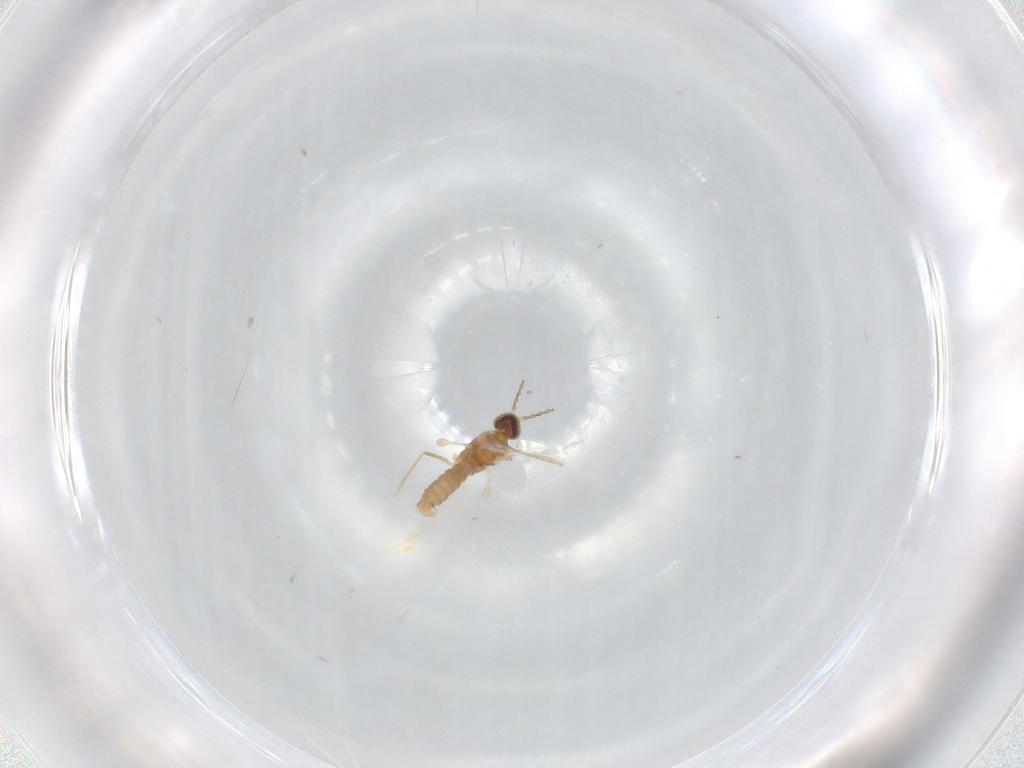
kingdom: Animalia
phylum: Arthropoda
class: Insecta
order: Diptera
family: Cecidomyiidae
